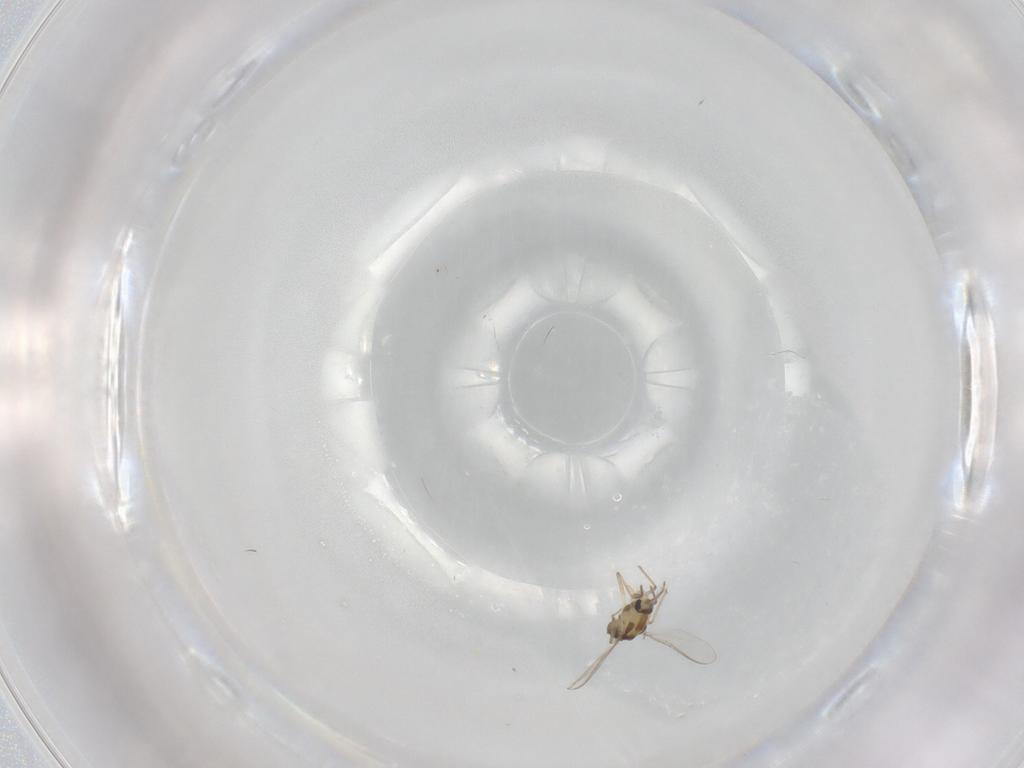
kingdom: Animalia
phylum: Arthropoda
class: Insecta
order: Diptera
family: Chironomidae
